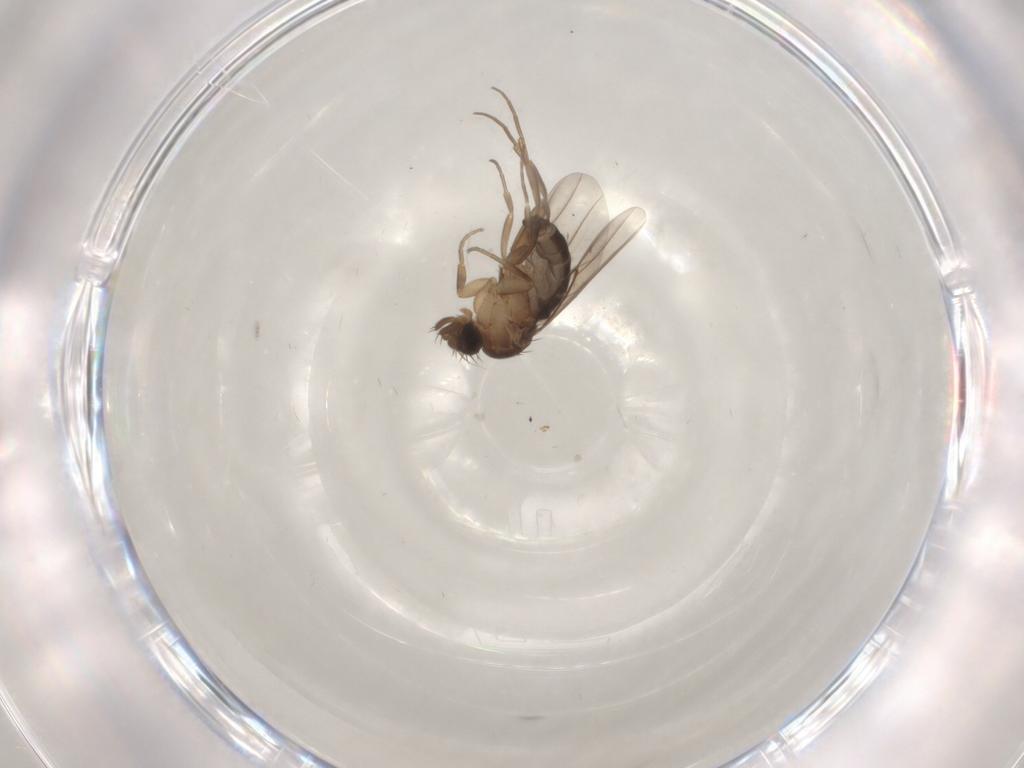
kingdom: Animalia
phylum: Arthropoda
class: Insecta
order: Diptera
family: Phoridae
